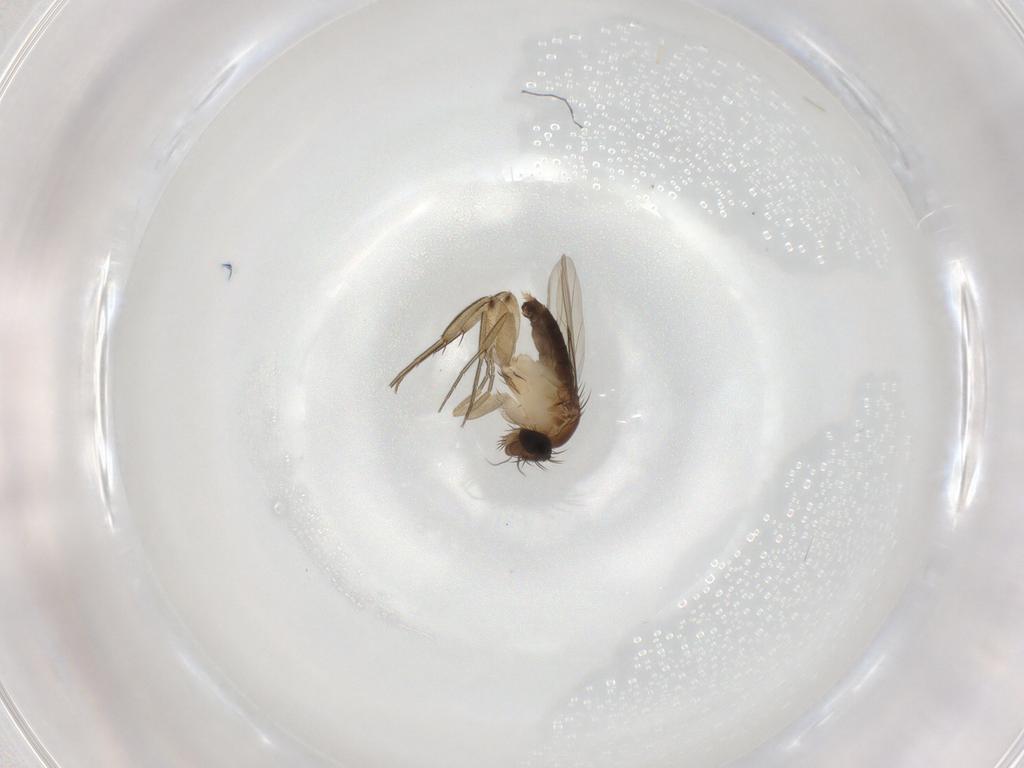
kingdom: Animalia
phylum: Arthropoda
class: Insecta
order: Diptera
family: Phoridae
